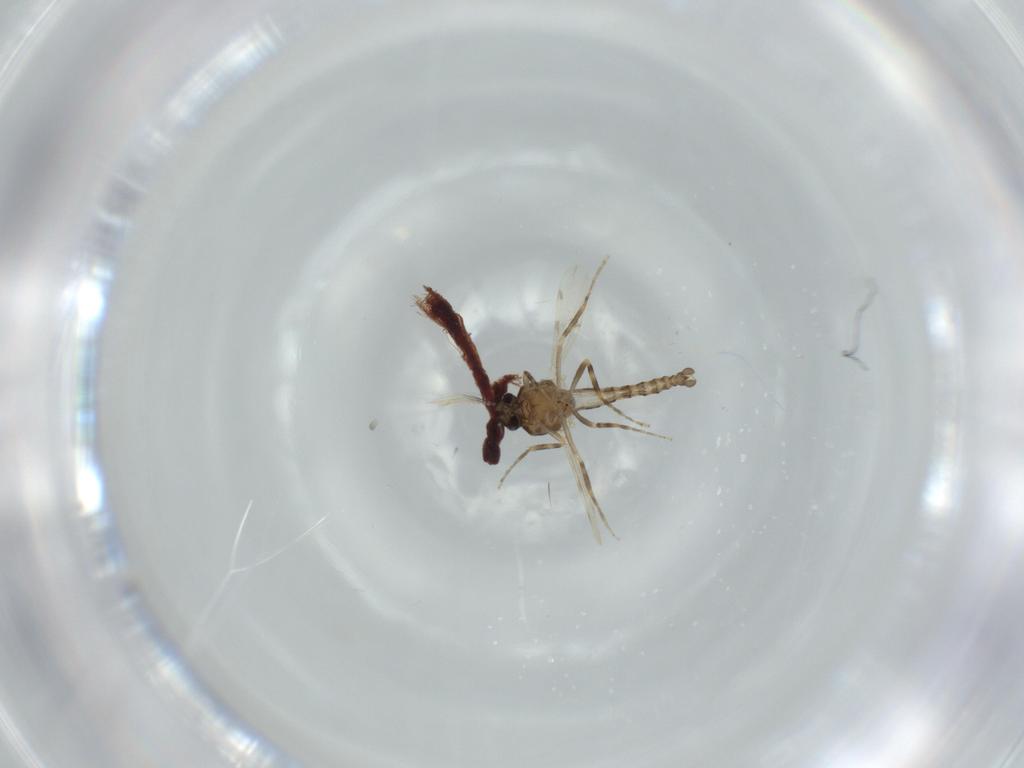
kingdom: Animalia
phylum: Arthropoda
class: Insecta
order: Diptera
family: Ceratopogonidae
